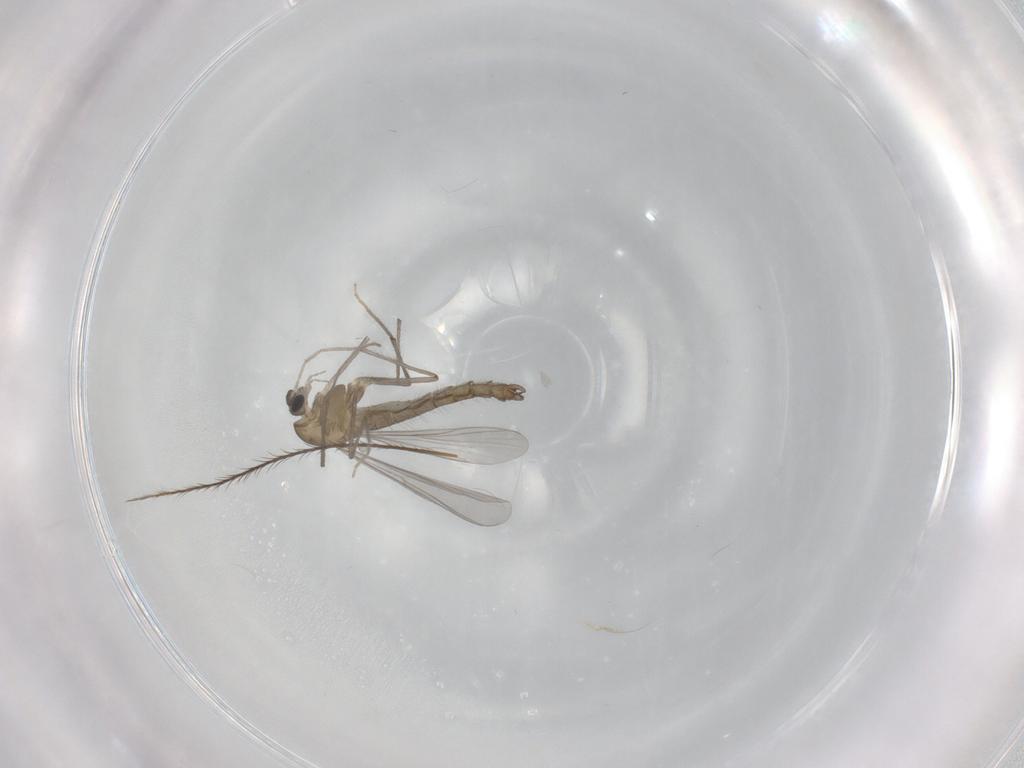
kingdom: Animalia
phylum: Arthropoda
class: Insecta
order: Diptera
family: Chironomidae
